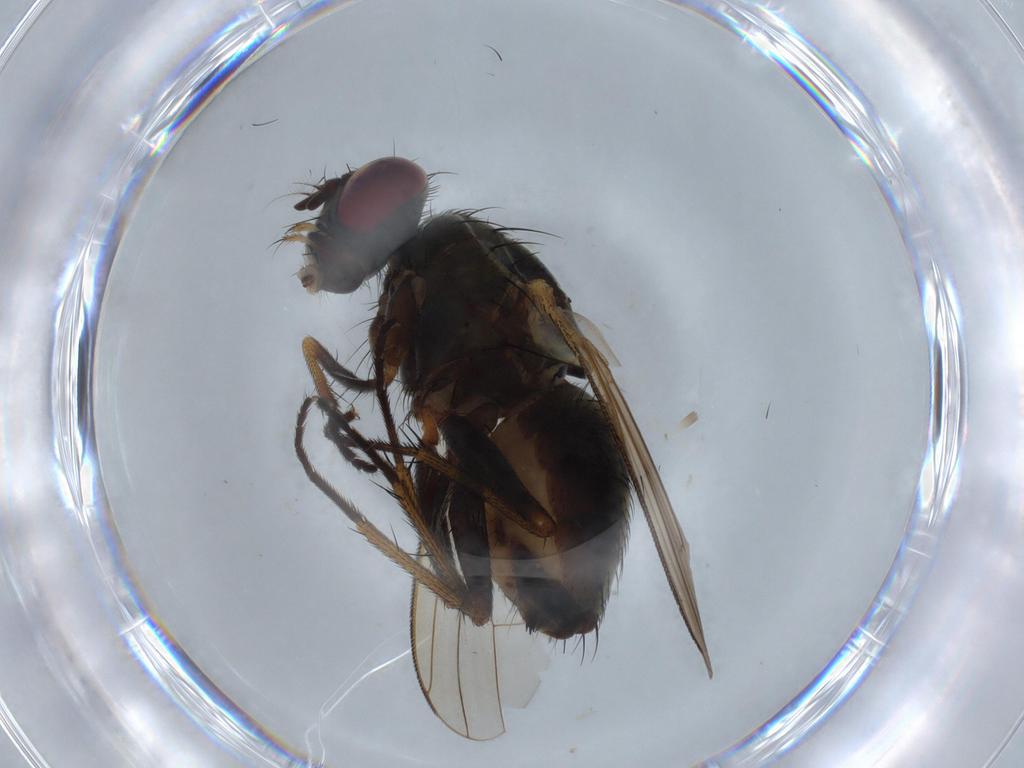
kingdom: Animalia
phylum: Arthropoda
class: Insecta
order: Diptera
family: Muscidae
